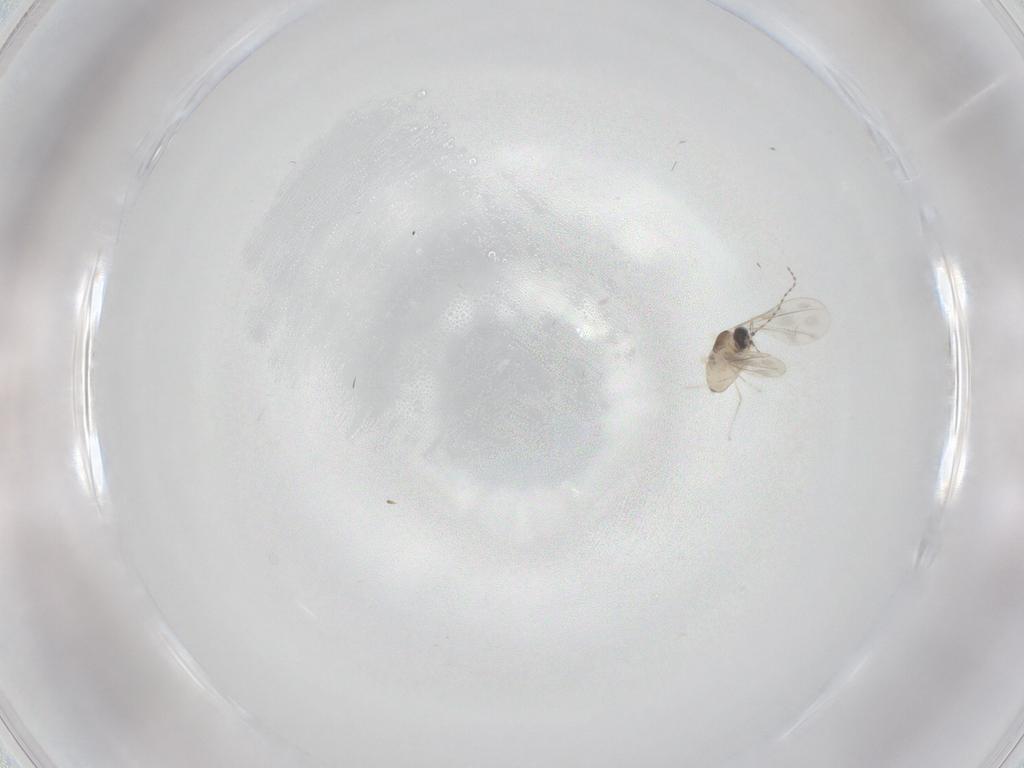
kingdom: Animalia
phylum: Arthropoda
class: Insecta
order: Diptera
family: Cecidomyiidae
